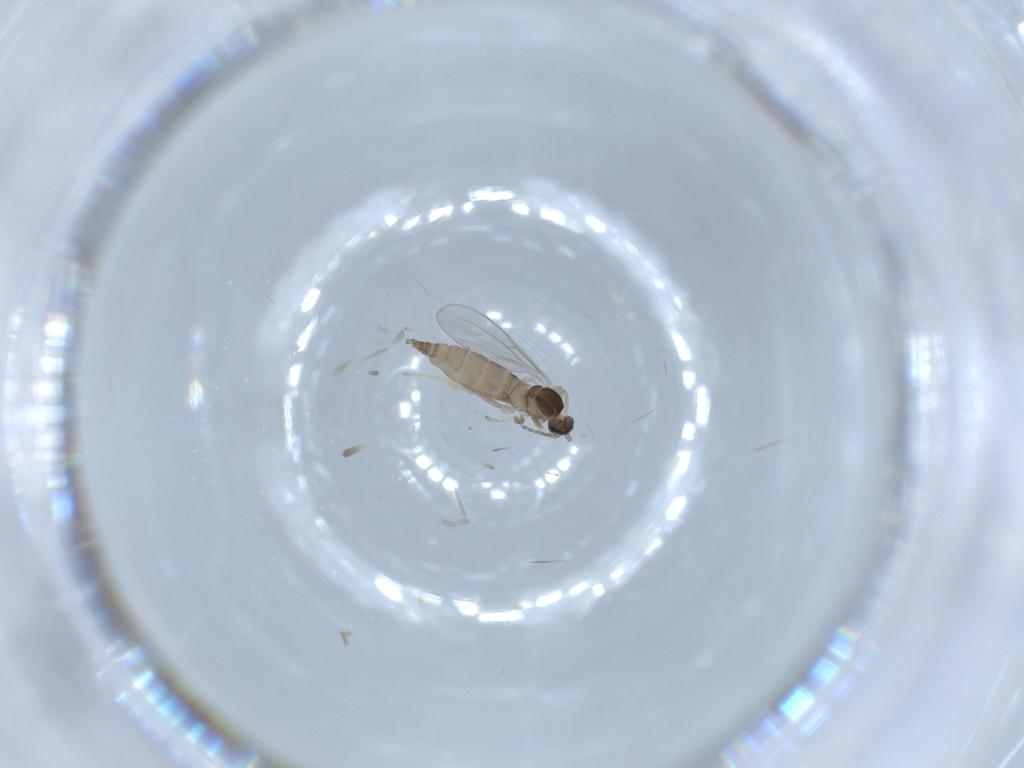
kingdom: Animalia
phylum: Arthropoda
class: Insecta
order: Diptera
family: Cecidomyiidae
